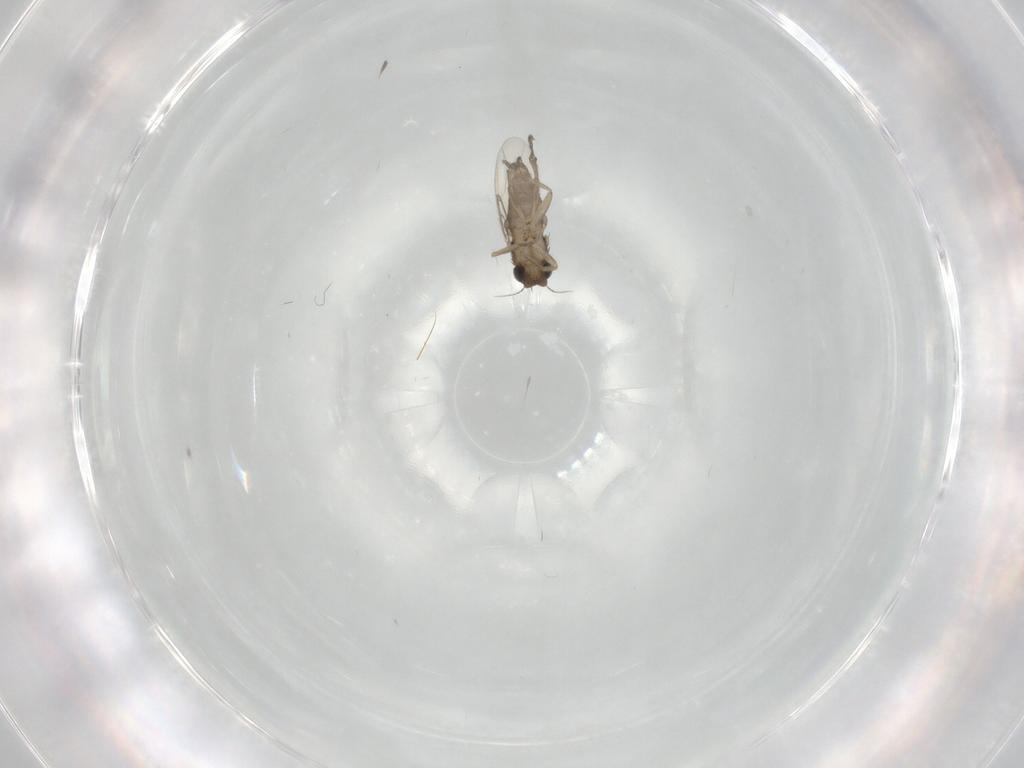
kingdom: Animalia
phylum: Arthropoda
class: Insecta
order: Diptera
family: Phoridae
